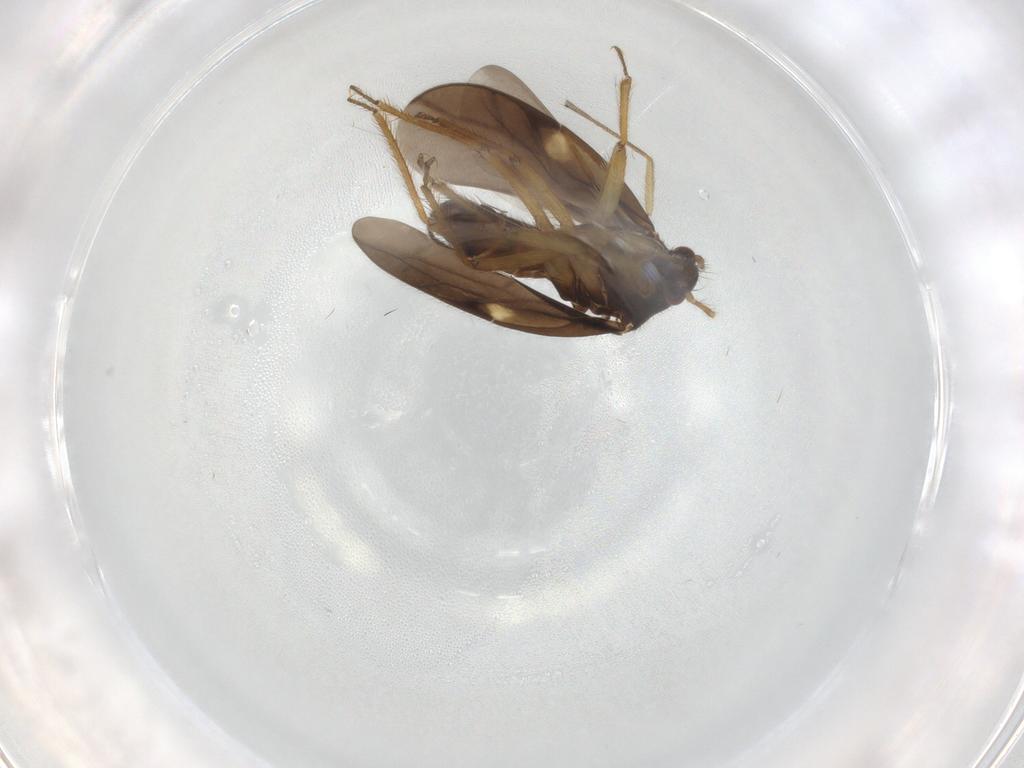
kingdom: Animalia
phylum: Arthropoda
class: Insecta
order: Hemiptera
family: Ceratocombidae
